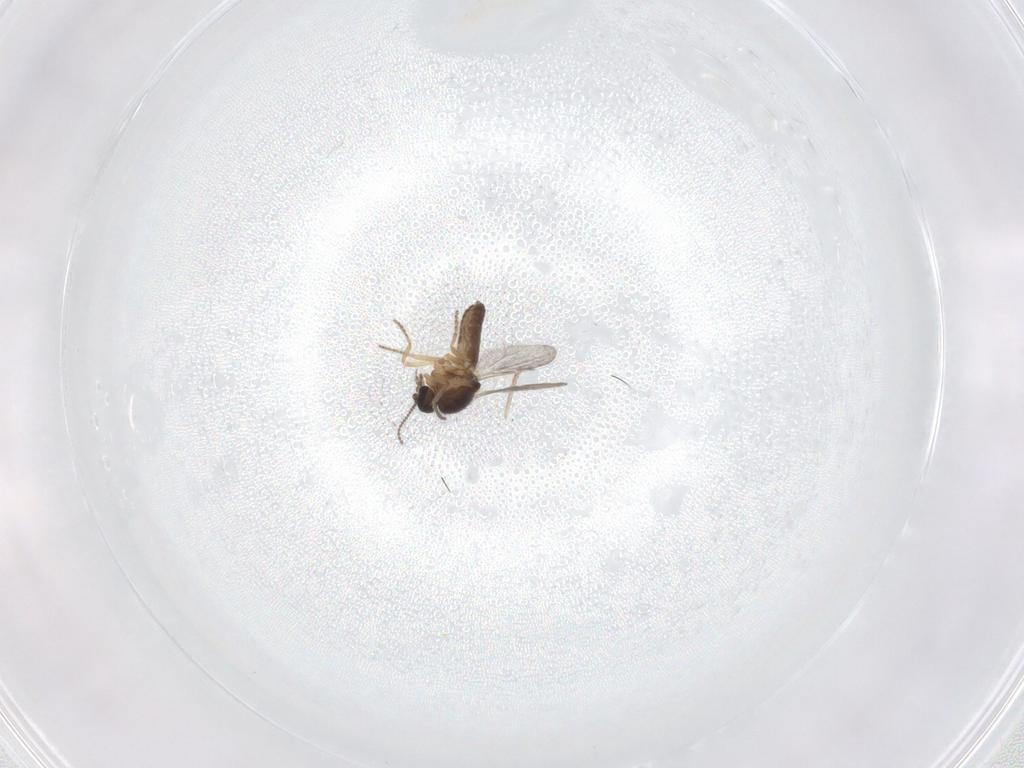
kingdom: Animalia
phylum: Arthropoda
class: Insecta
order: Diptera
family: Ceratopogonidae
